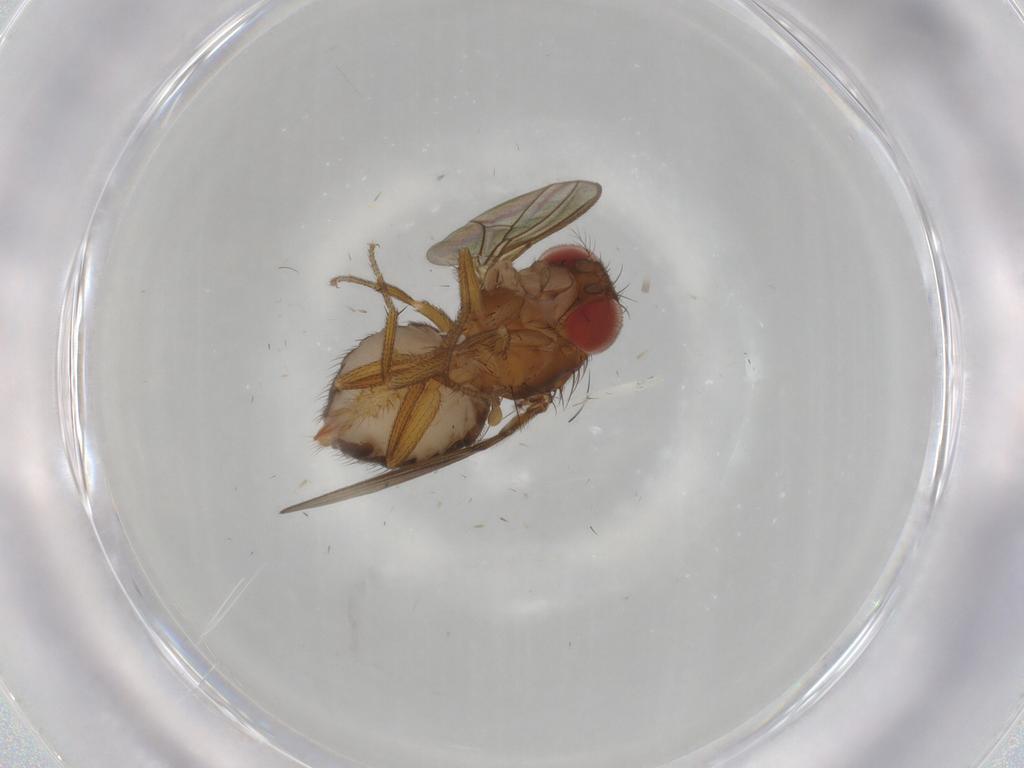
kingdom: Animalia
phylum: Arthropoda
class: Insecta
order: Diptera
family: Drosophilidae
